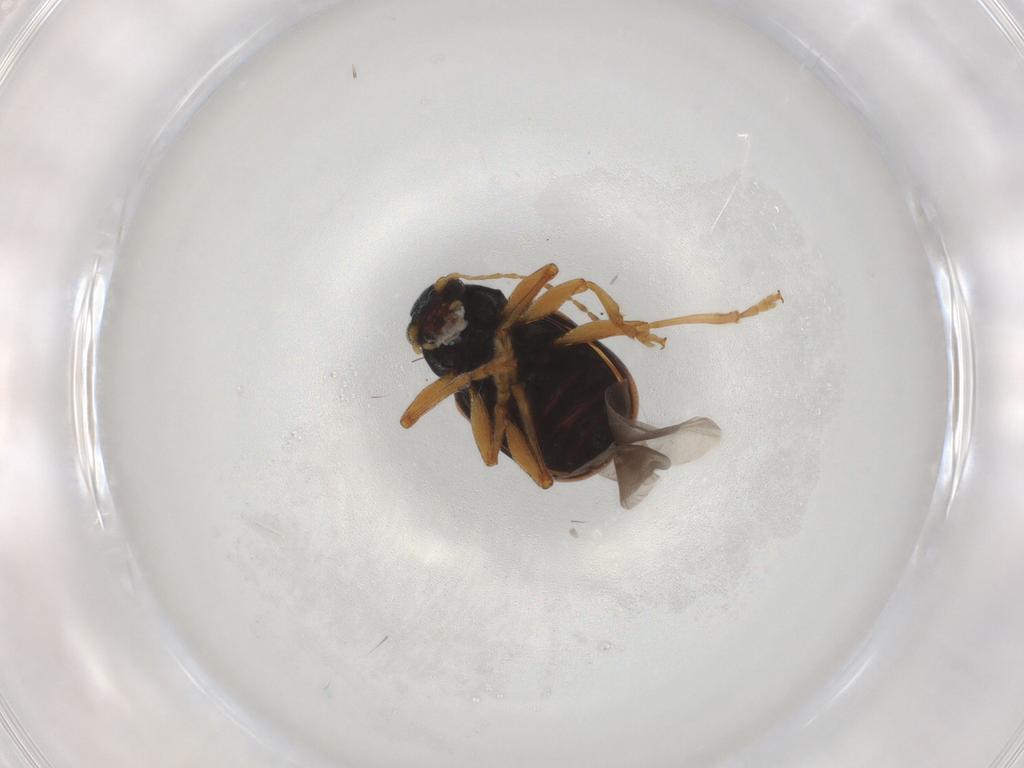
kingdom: Animalia
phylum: Arthropoda
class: Insecta
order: Coleoptera
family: Chrysomelidae
